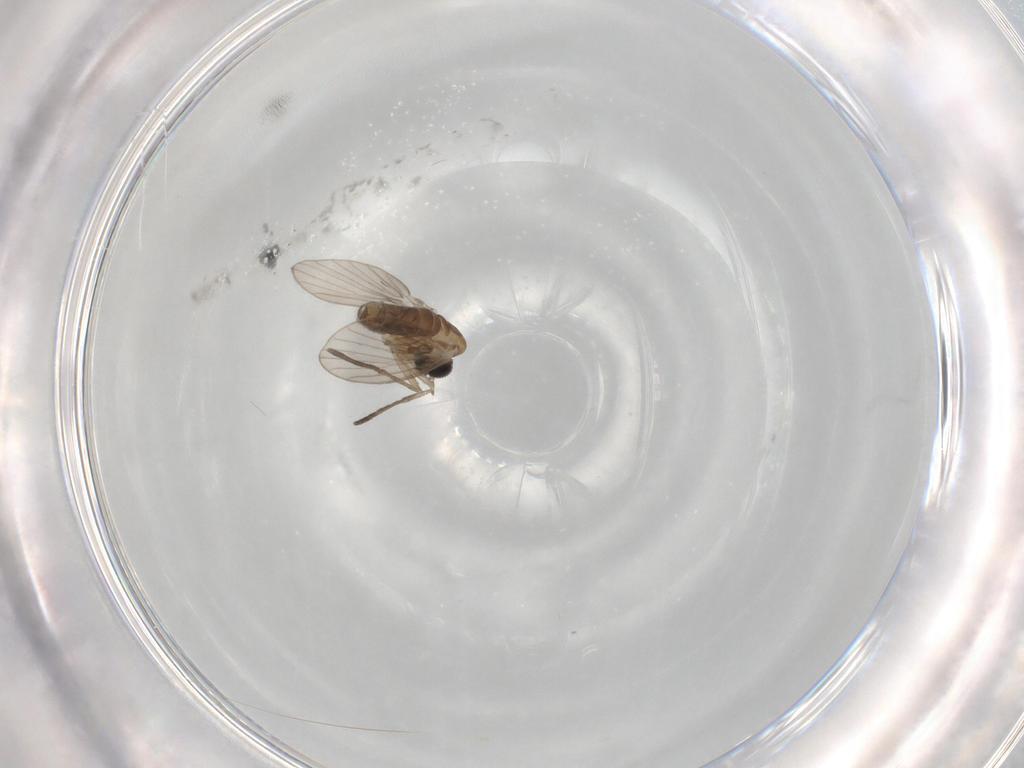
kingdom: Animalia
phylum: Arthropoda
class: Insecta
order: Diptera
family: Psychodidae
